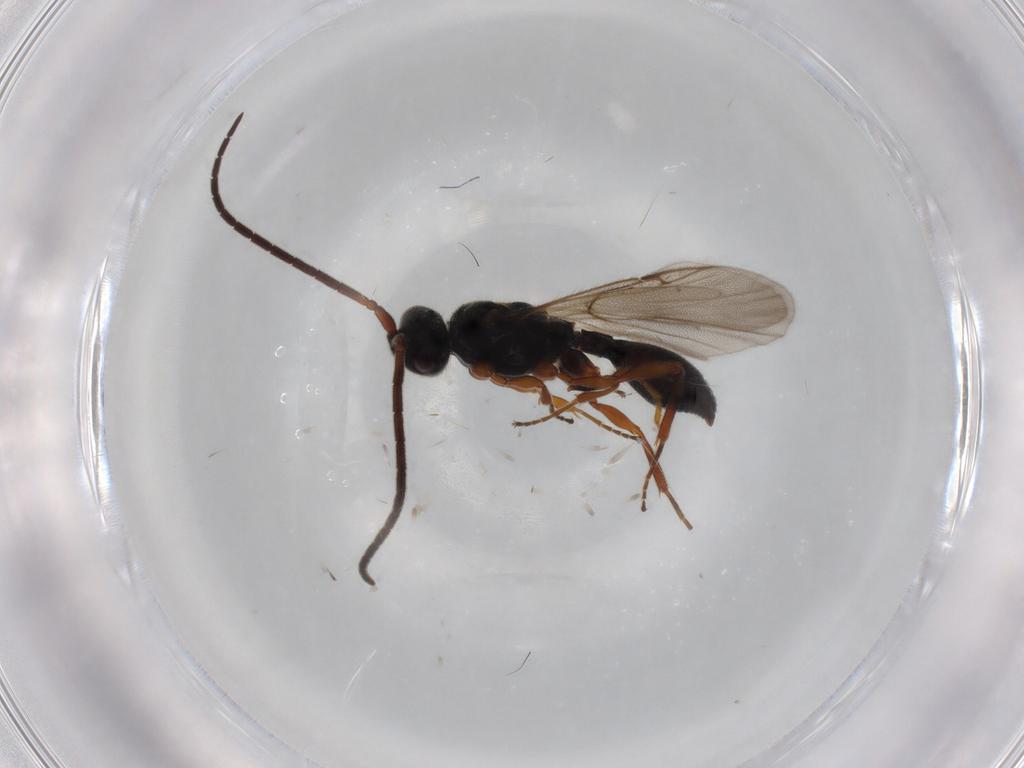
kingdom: Animalia
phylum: Arthropoda
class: Insecta
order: Hymenoptera
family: Ichneumonidae
